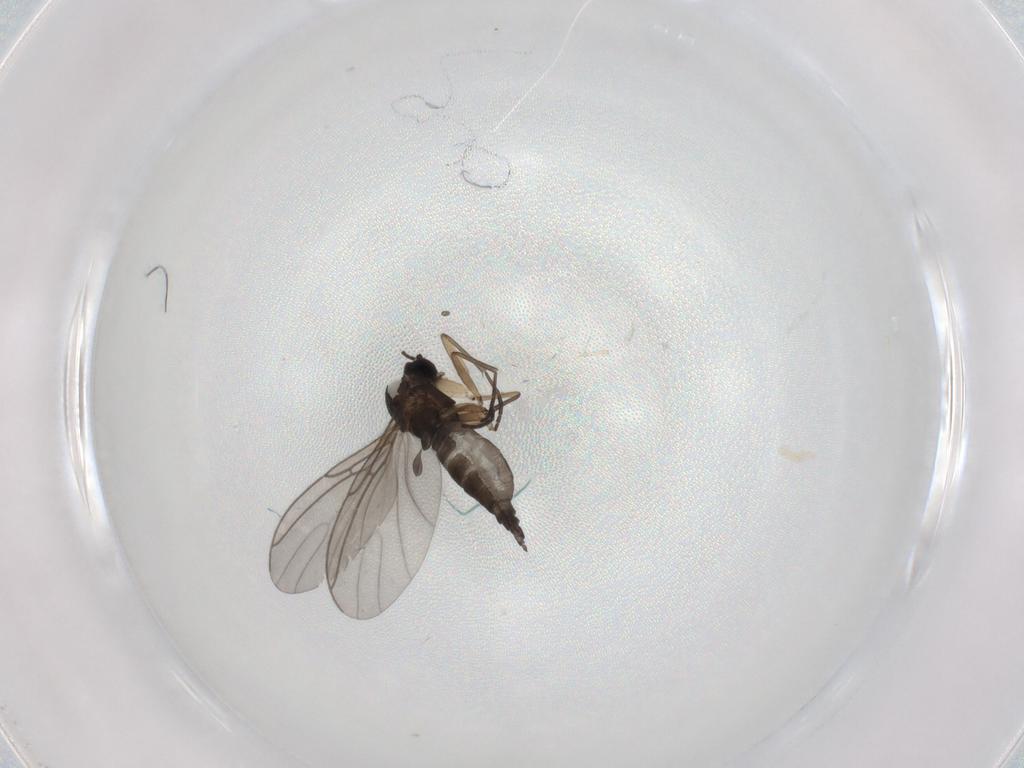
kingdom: Animalia
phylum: Arthropoda
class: Insecta
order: Diptera
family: Sciaridae
